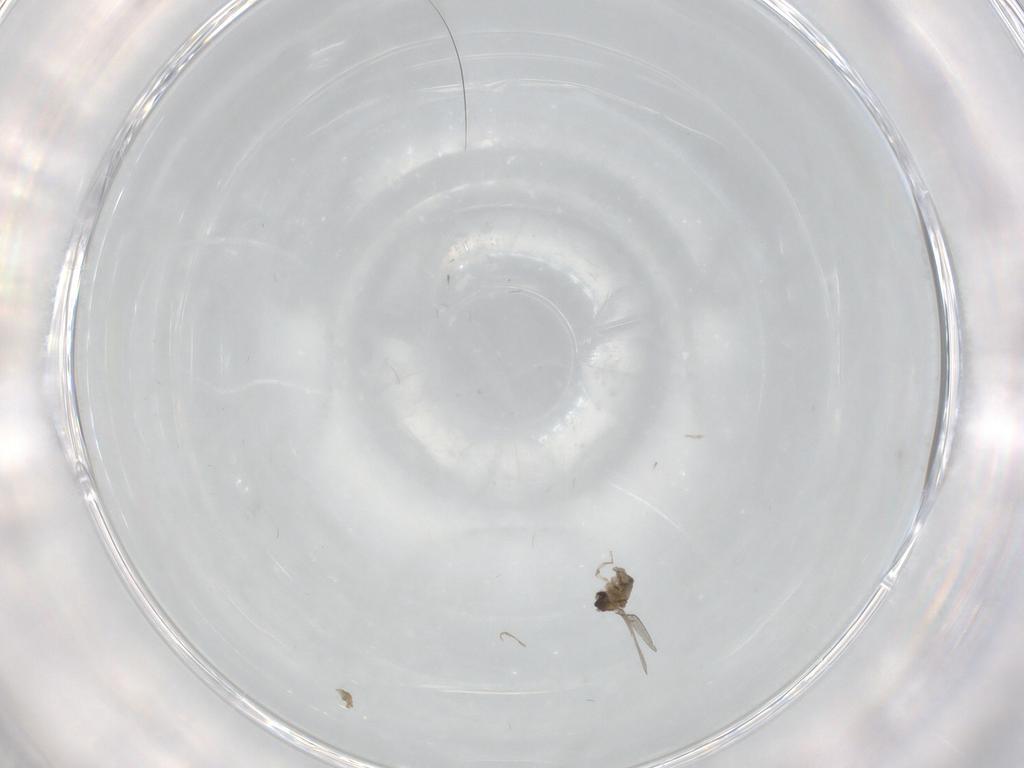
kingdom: Animalia
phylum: Arthropoda
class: Insecta
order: Diptera
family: Cecidomyiidae
